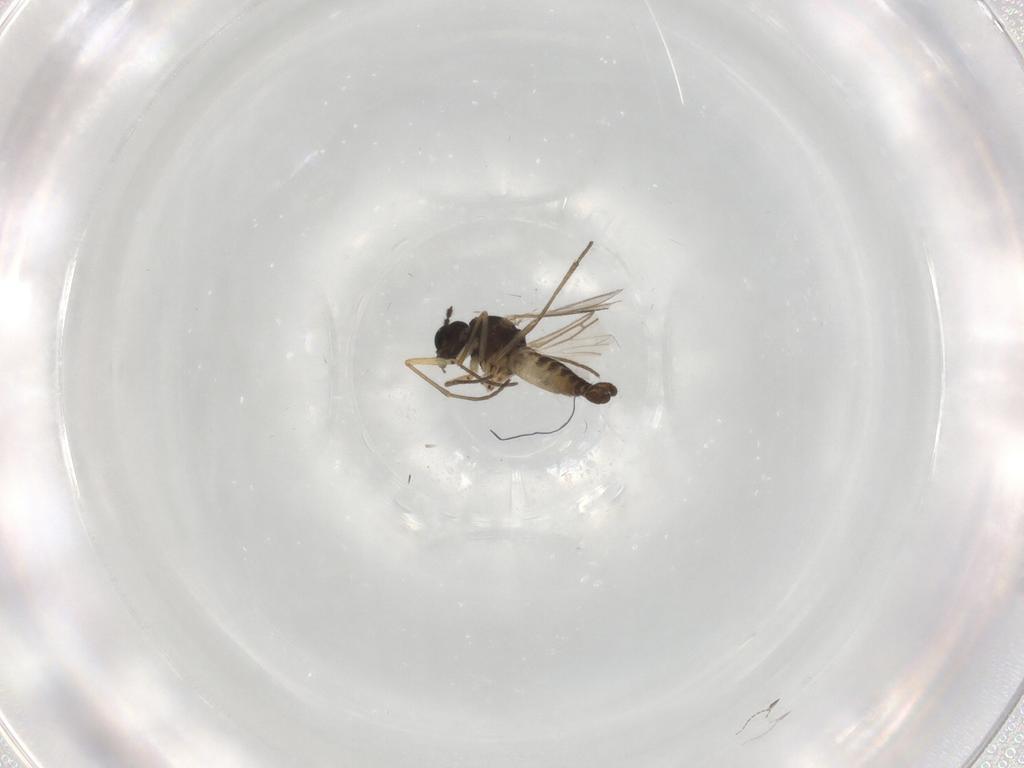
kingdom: Animalia
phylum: Arthropoda
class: Insecta
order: Diptera
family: Sciaridae
